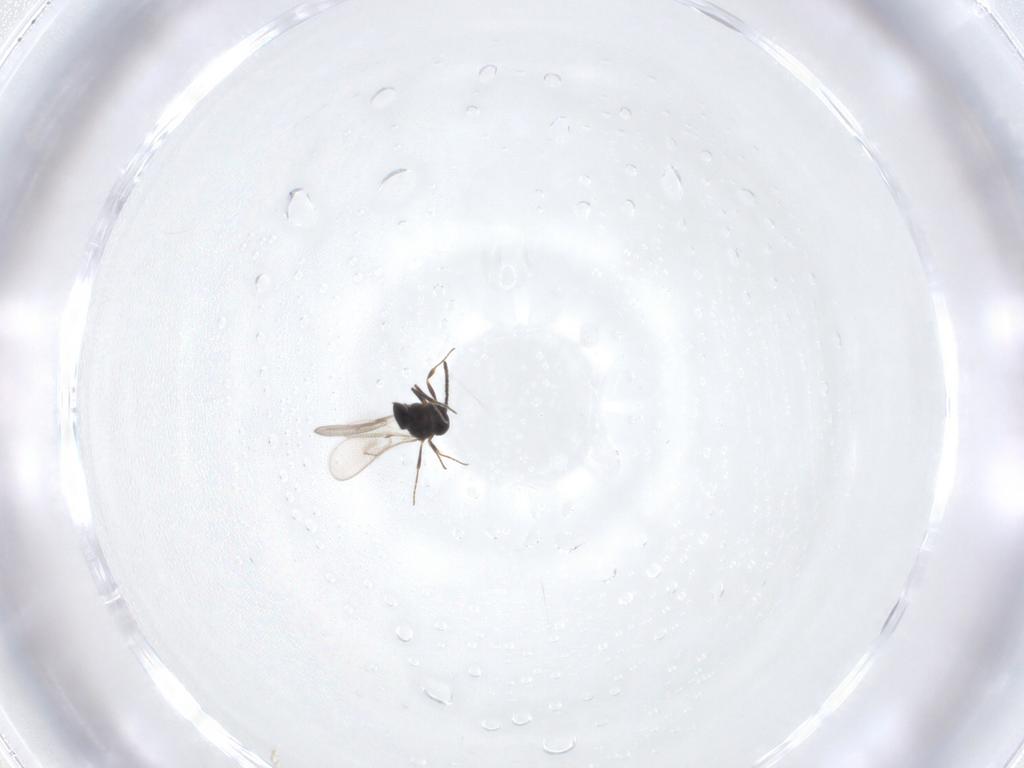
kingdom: Animalia
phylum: Arthropoda
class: Insecta
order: Hymenoptera
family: Scelionidae
